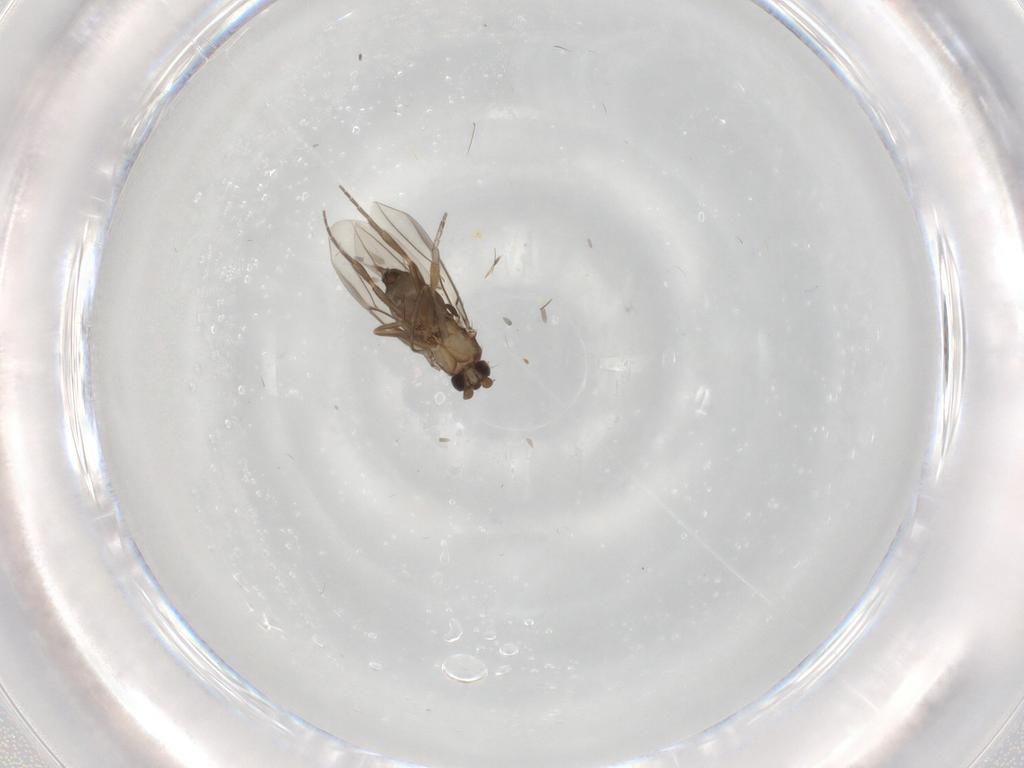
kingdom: Animalia
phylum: Arthropoda
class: Insecta
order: Diptera
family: Phoridae
